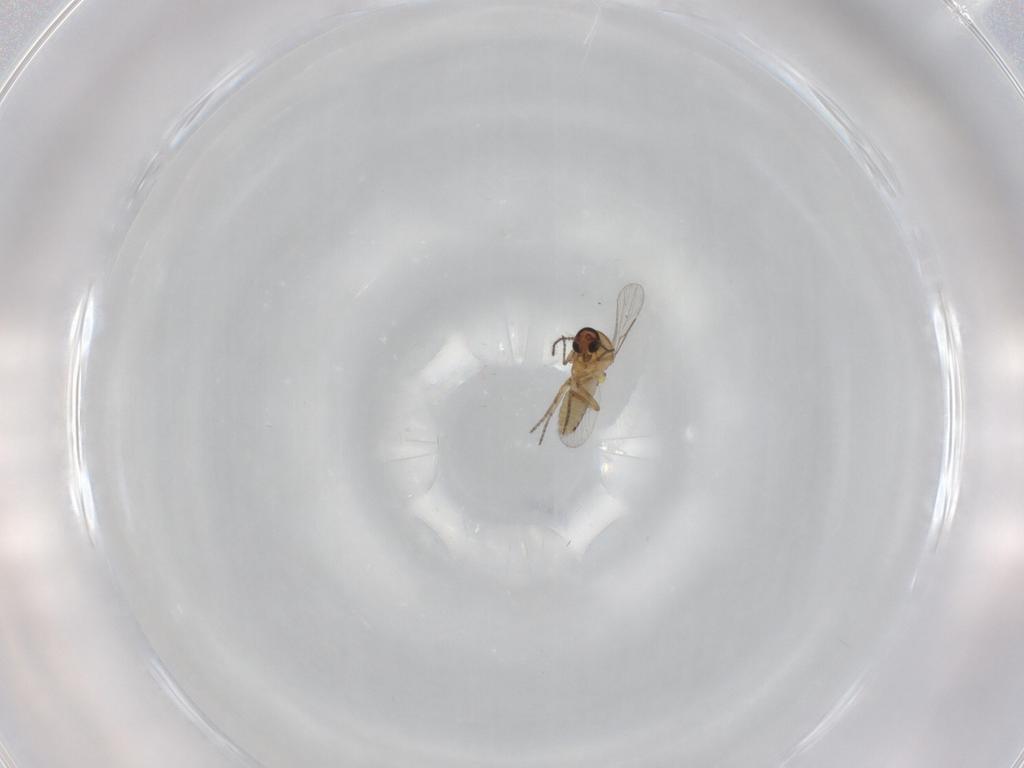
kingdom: Animalia
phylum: Arthropoda
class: Insecta
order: Diptera
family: Ceratopogonidae
